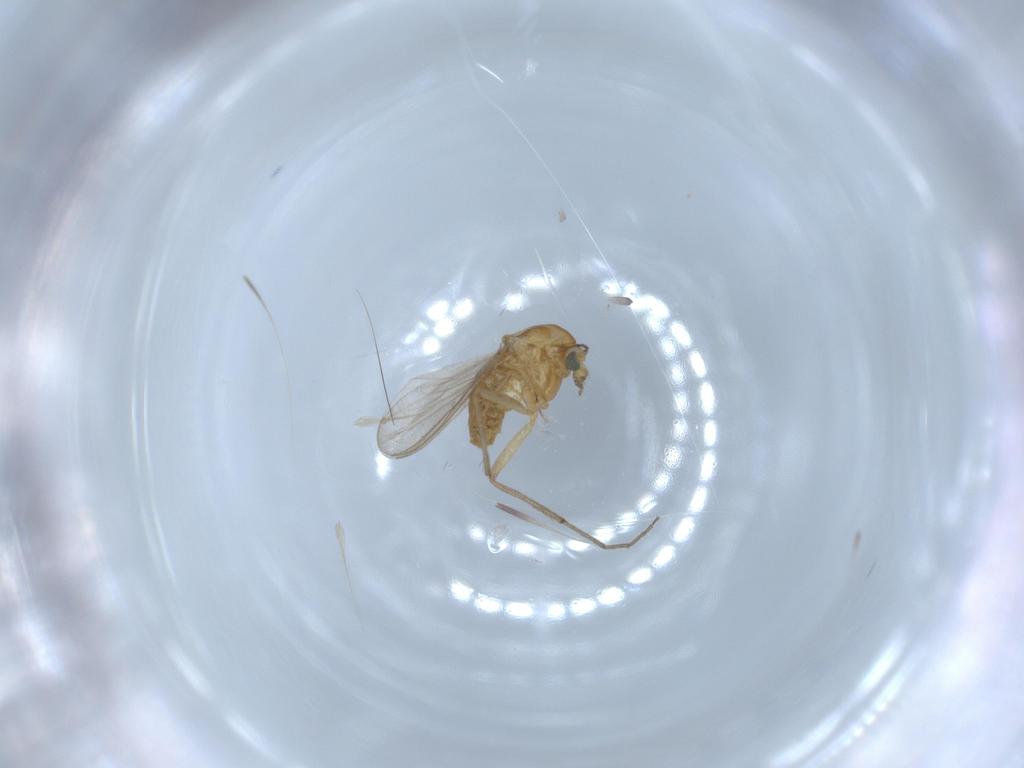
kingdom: Animalia
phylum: Arthropoda
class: Insecta
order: Diptera
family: Chironomidae
